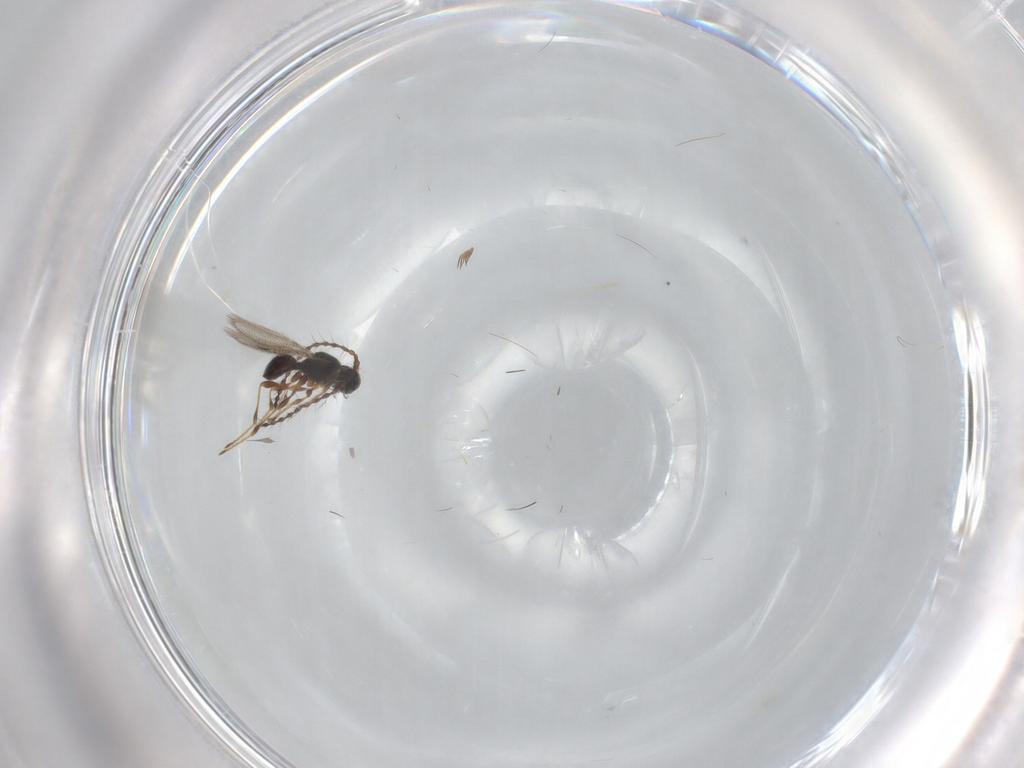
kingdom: Animalia
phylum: Arthropoda
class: Insecta
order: Hymenoptera
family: Diapriidae
